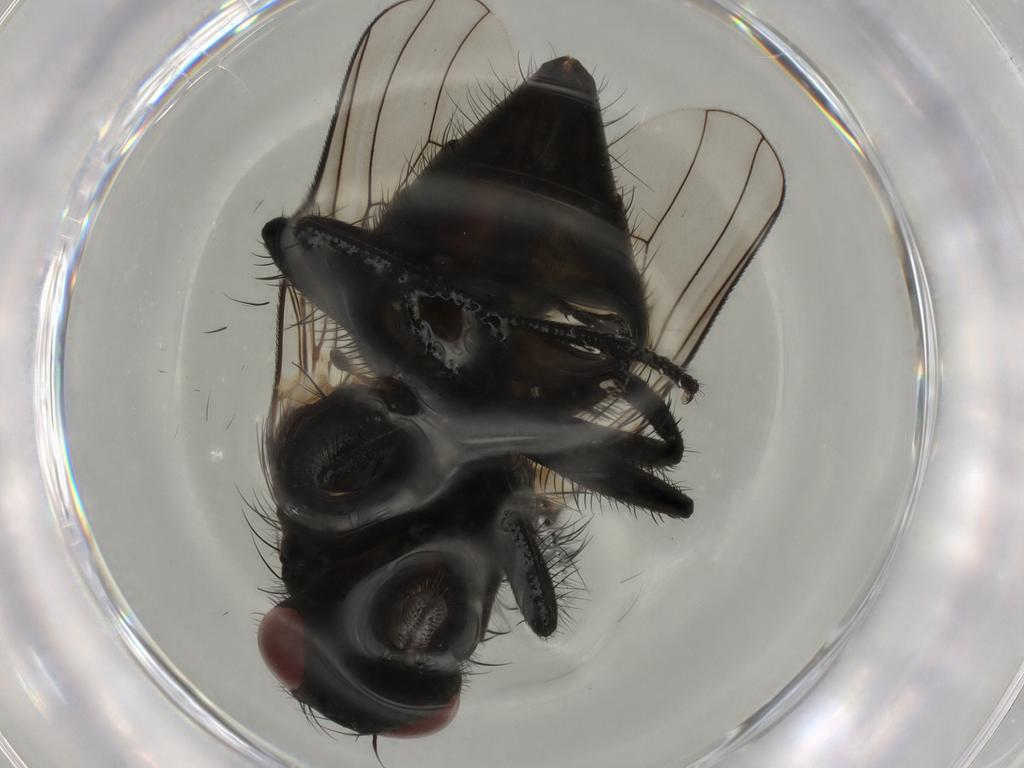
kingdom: Animalia
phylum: Arthropoda
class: Insecta
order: Diptera
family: Muscidae
